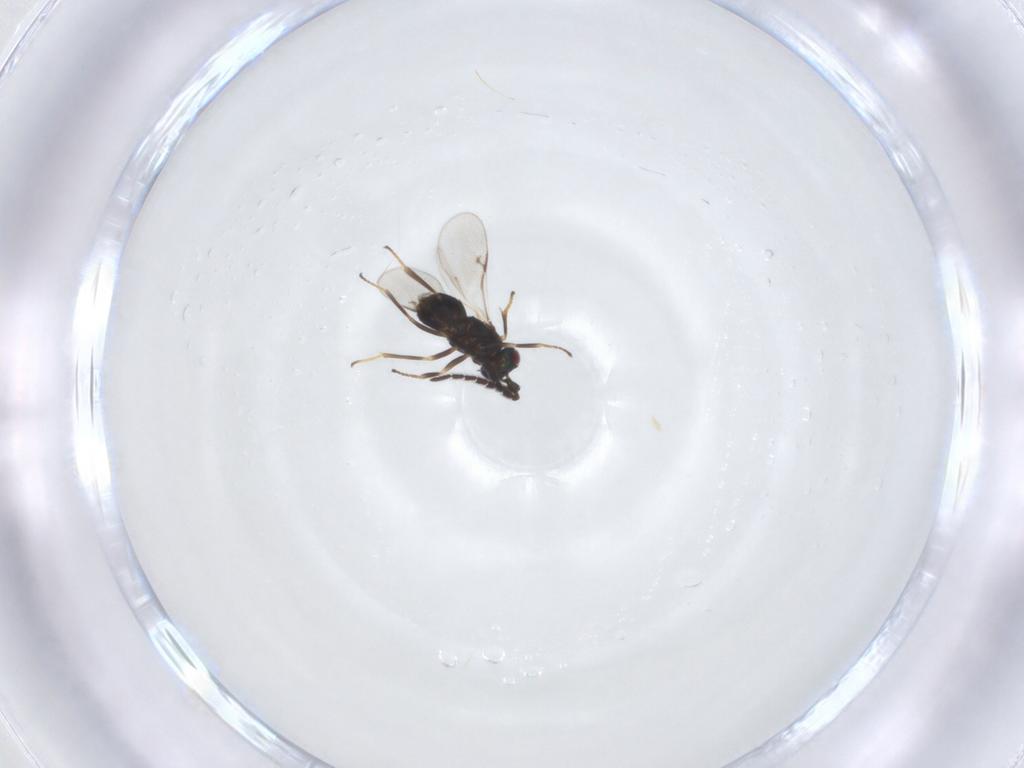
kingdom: Animalia
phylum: Arthropoda
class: Insecta
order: Hymenoptera
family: Encyrtidae
